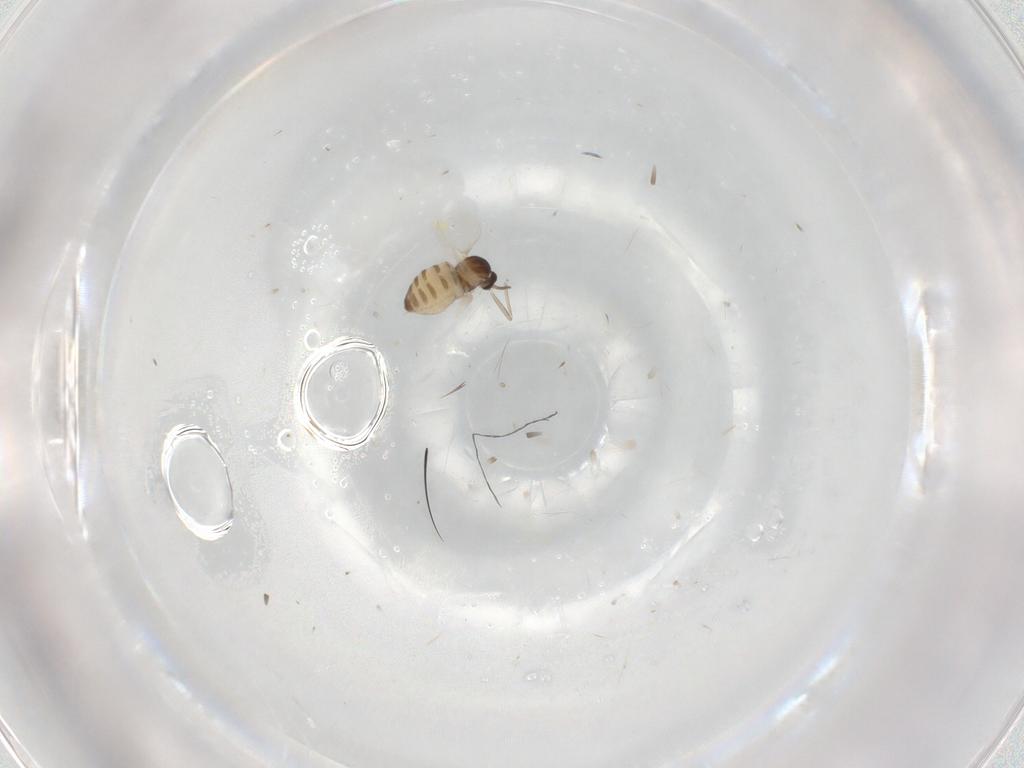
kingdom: Animalia
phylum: Arthropoda
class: Insecta
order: Diptera
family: Cecidomyiidae
